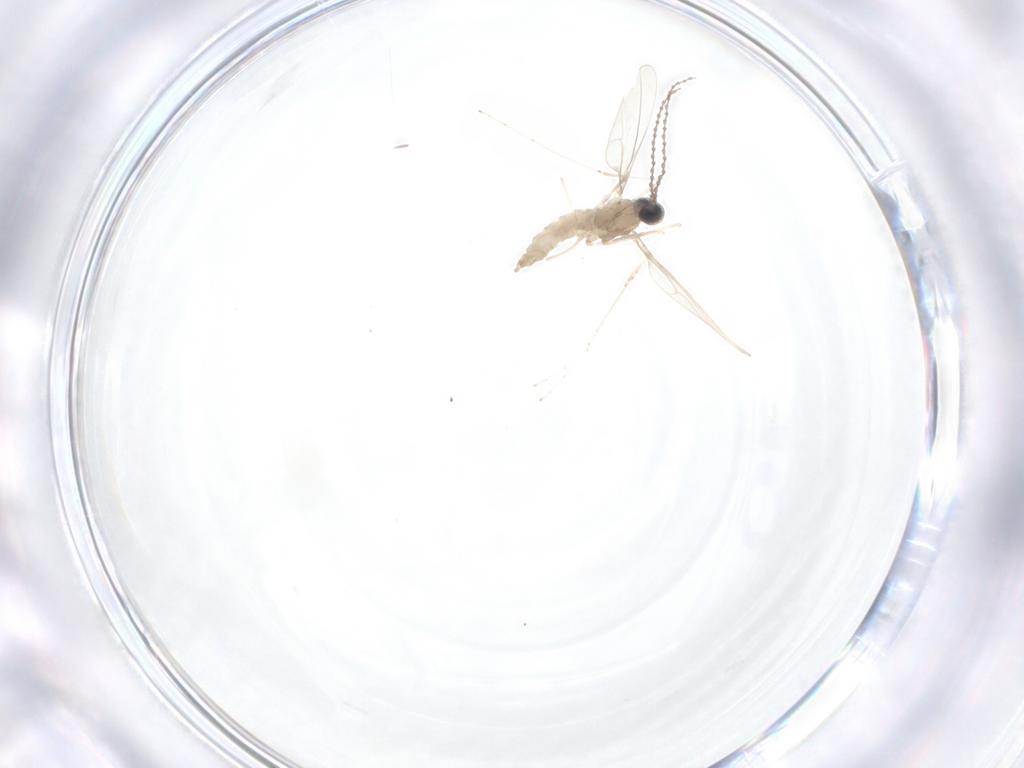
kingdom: Animalia
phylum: Arthropoda
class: Insecta
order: Diptera
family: Cecidomyiidae
